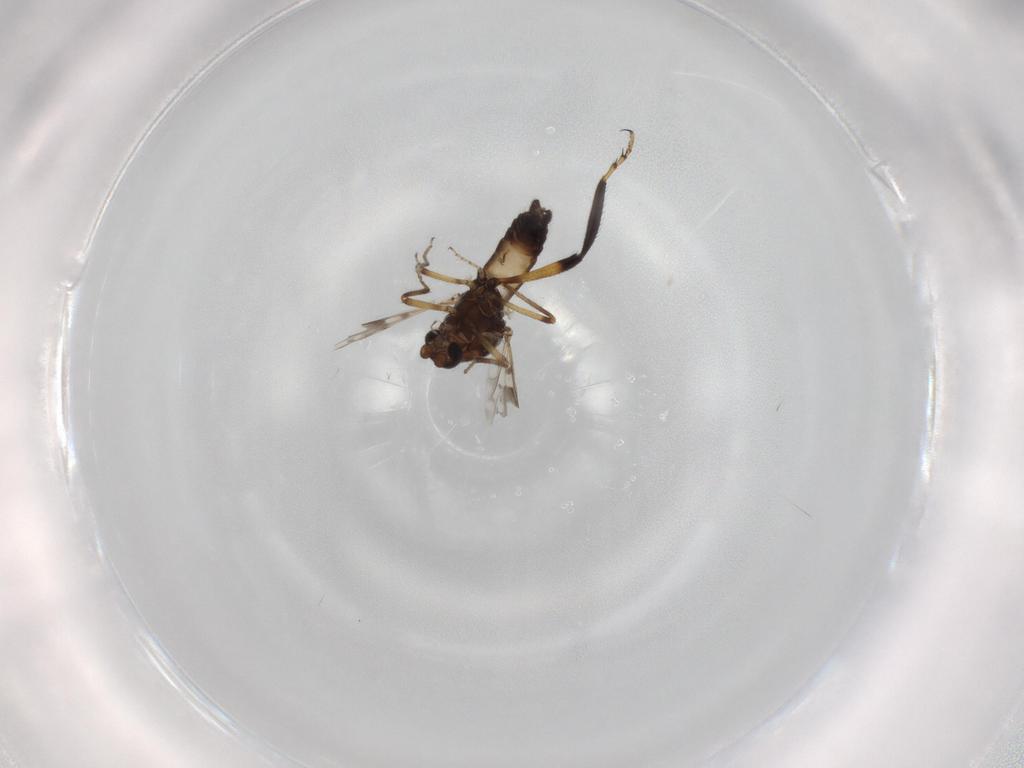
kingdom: Animalia
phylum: Arthropoda
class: Insecta
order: Diptera
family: Ceratopogonidae
